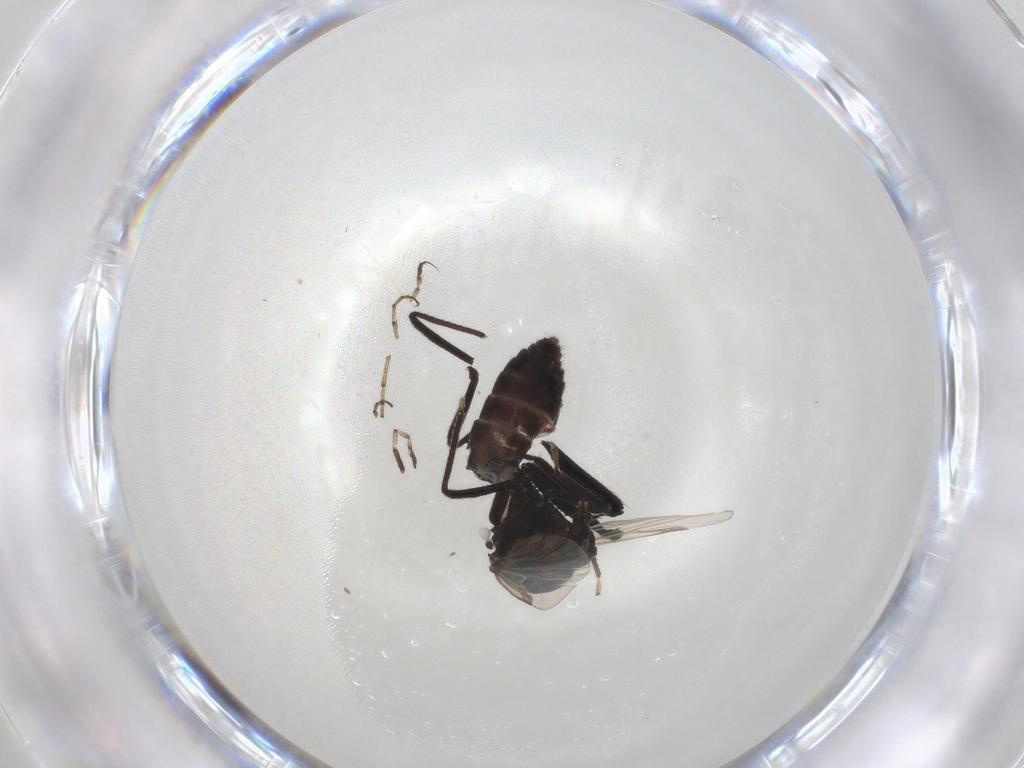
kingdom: Animalia
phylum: Arthropoda
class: Insecta
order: Diptera
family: Ceratopogonidae
